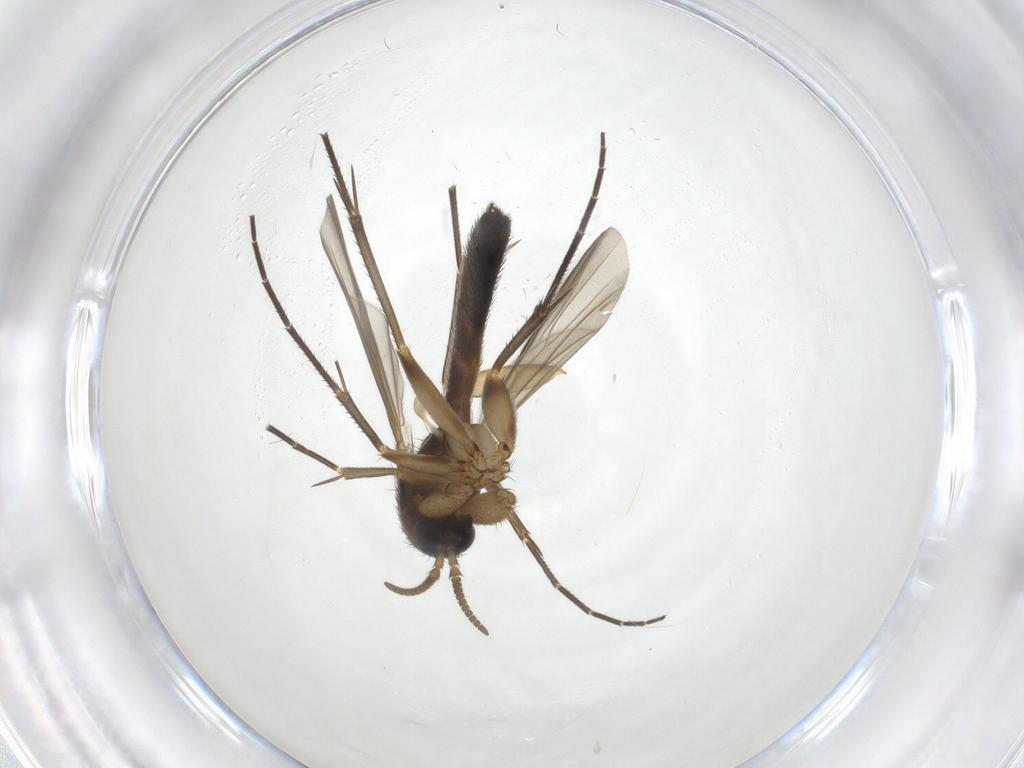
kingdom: Animalia
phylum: Arthropoda
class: Insecta
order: Diptera
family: Mycetophilidae
